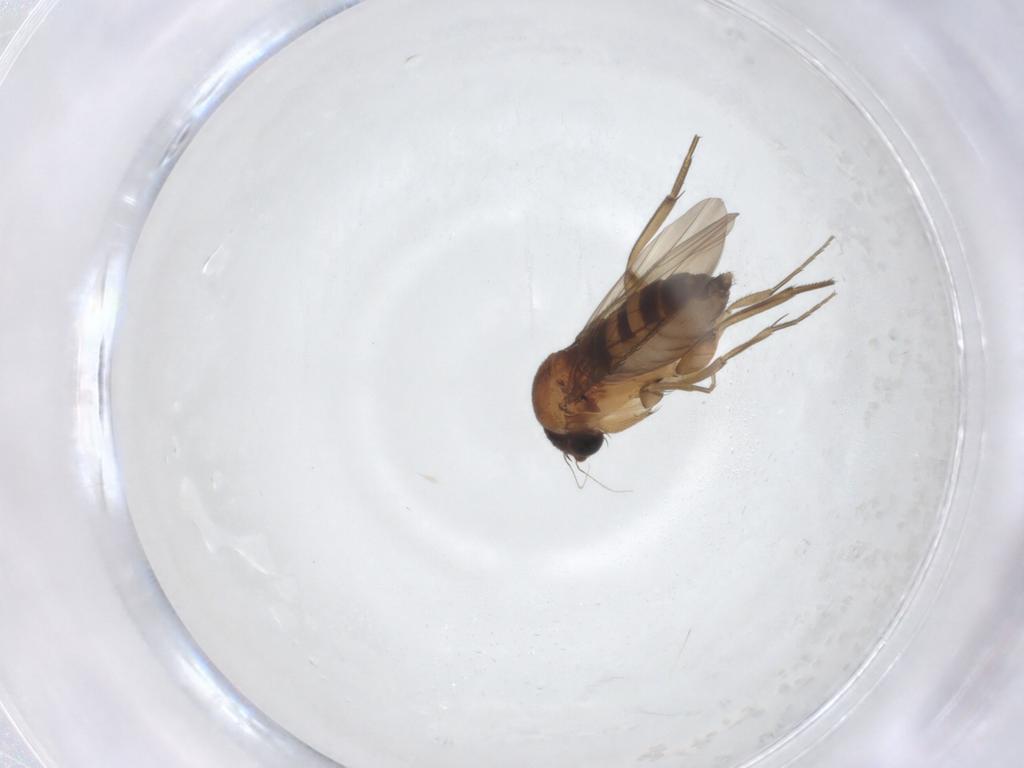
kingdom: Animalia
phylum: Arthropoda
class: Insecta
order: Diptera
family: Phoridae
